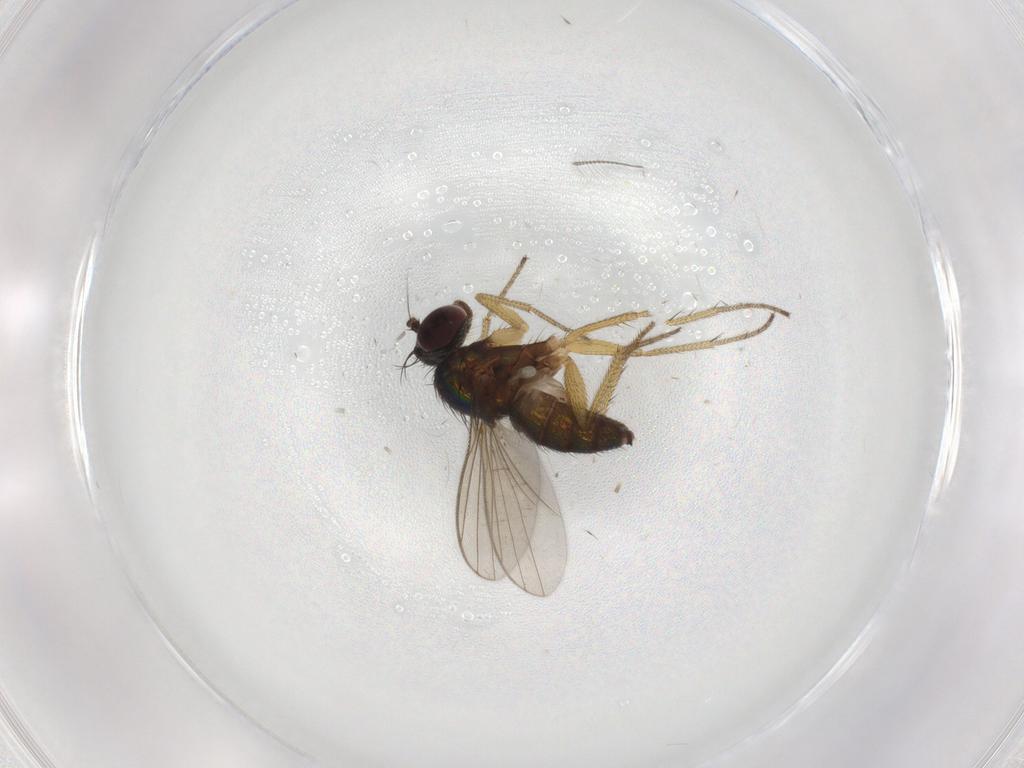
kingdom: Animalia
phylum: Arthropoda
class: Insecta
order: Diptera
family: Chironomidae
